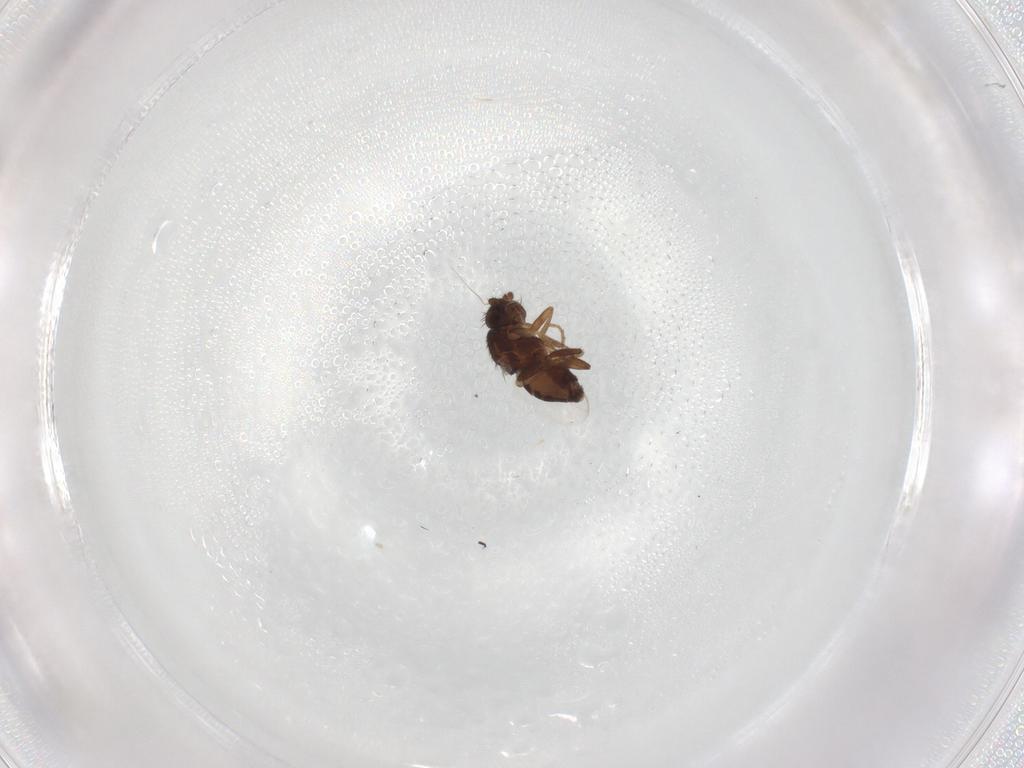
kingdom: Animalia
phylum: Arthropoda
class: Insecta
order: Diptera
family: Sphaeroceridae
